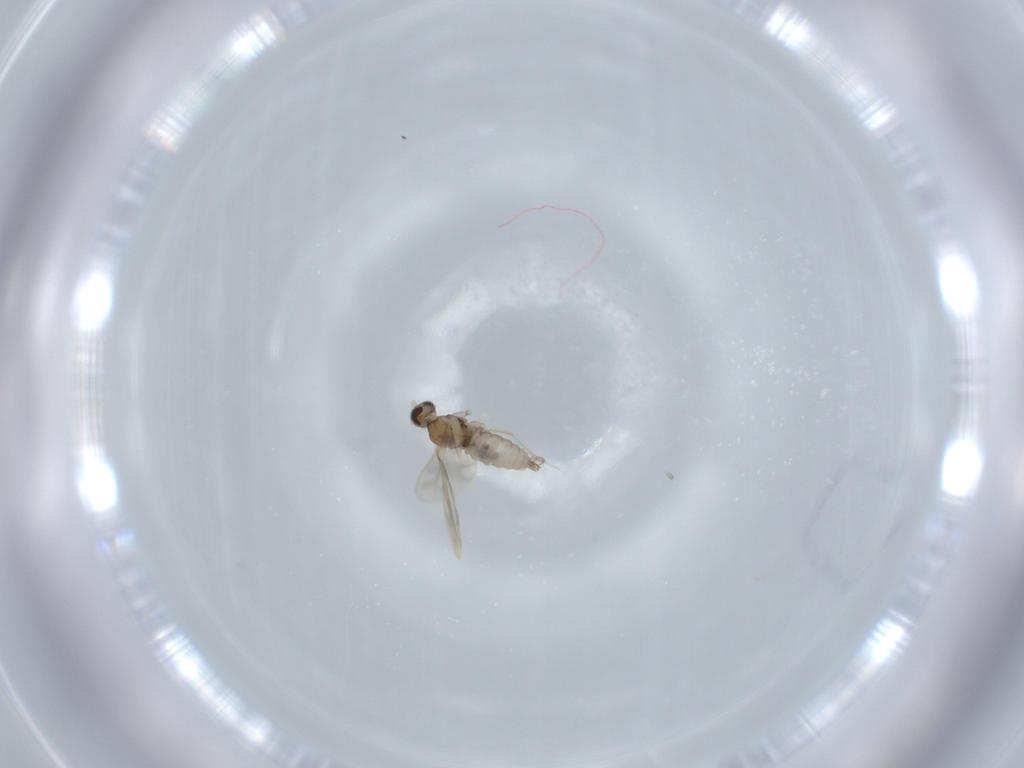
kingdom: Animalia
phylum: Arthropoda
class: Insecta
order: Diptera
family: Cecidomyiidae
